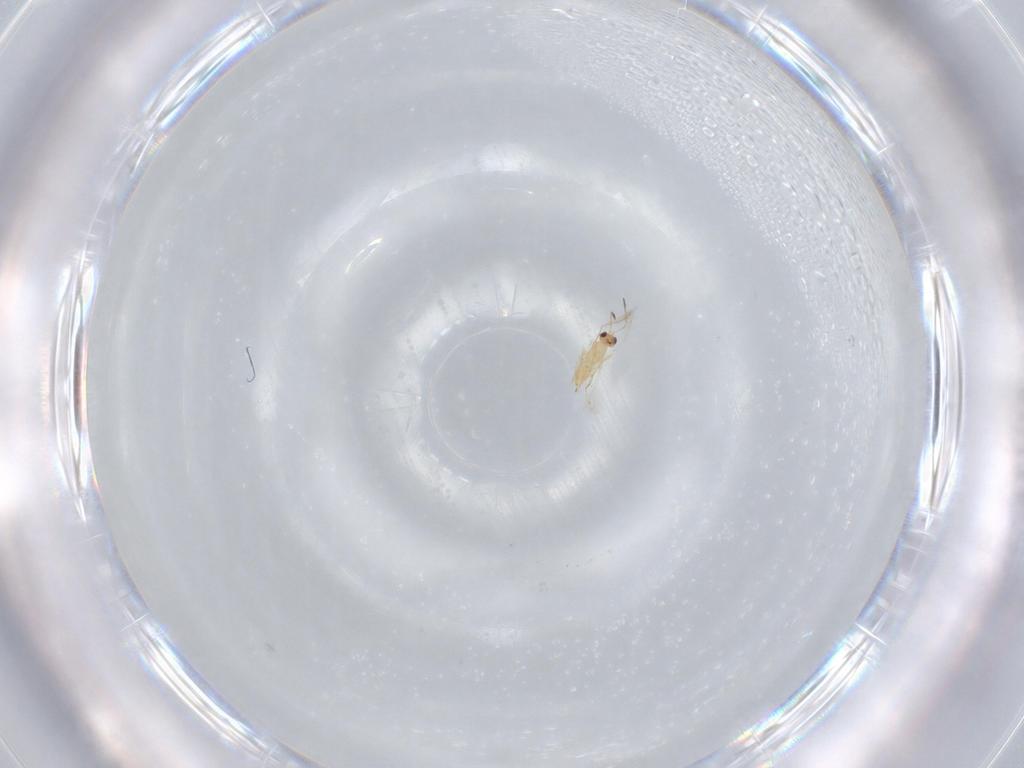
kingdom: Animalia
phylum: Arthropoda
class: Insecta
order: Hymenoptera
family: Mymaridae
